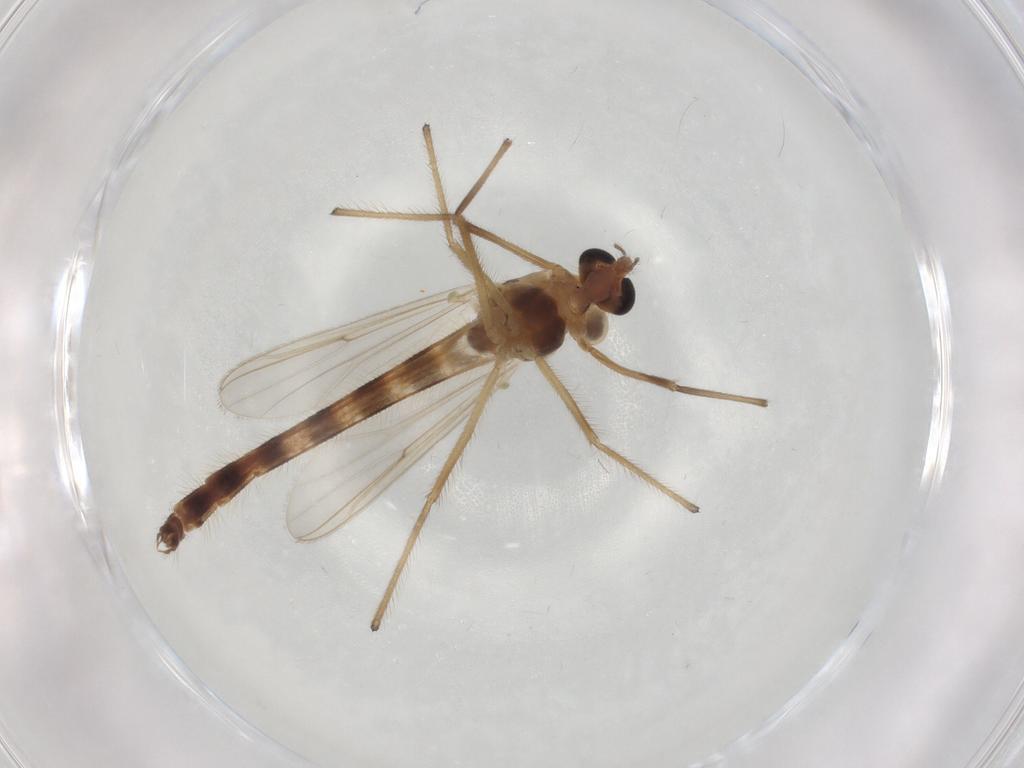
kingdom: Animalia
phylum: Arthropoda
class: Insecta
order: Diptera
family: Chironomidae
